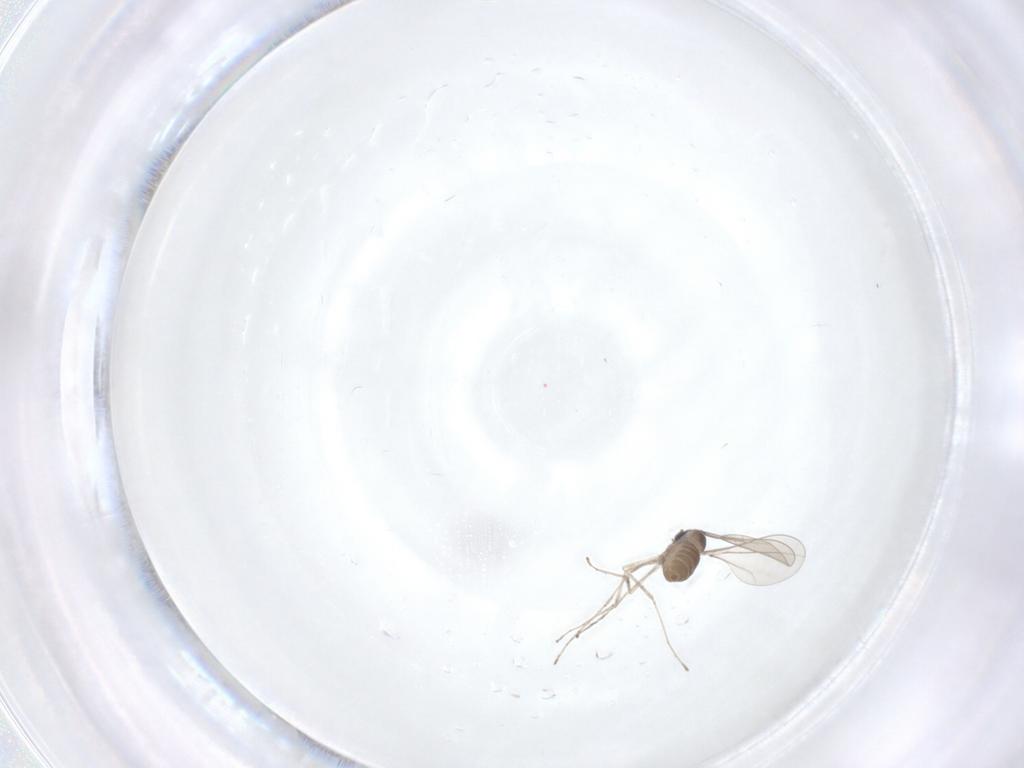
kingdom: Animalia
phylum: Arthropoda
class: Insecta
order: Diptera
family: Cecidomyiidae
